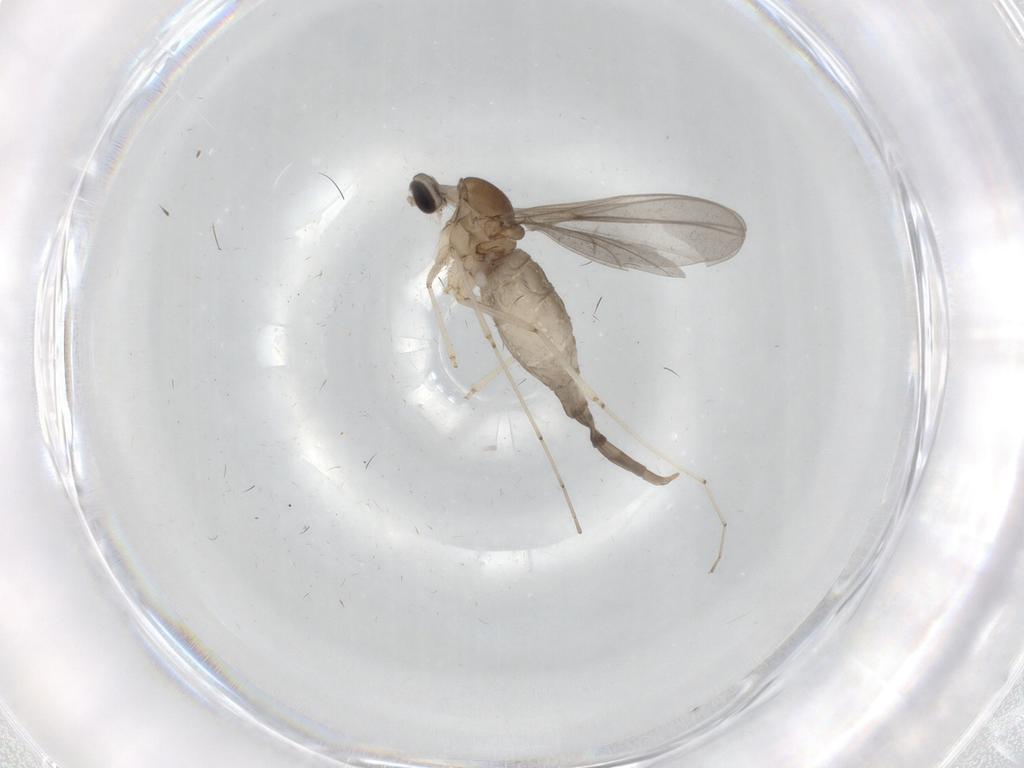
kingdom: Animalia
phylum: Arthropoda
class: Insecta
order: Diptera
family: Cecidomyiidae
